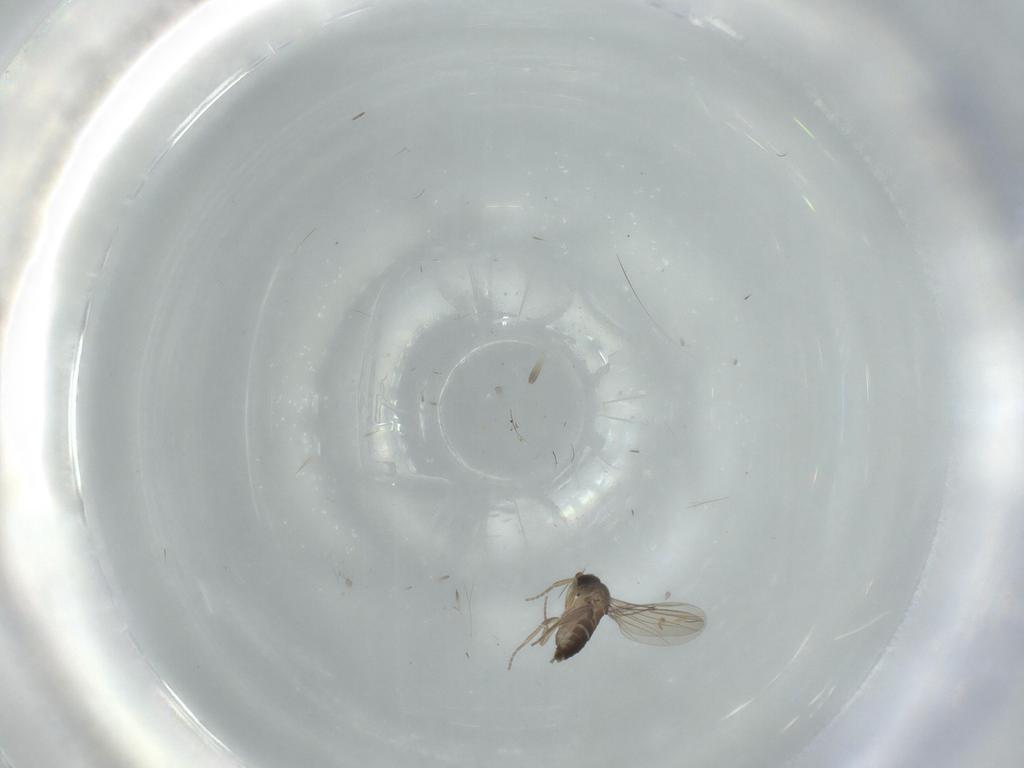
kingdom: Animalia
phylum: Arthropoda
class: Insecta
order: Diptera
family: Phoridae
